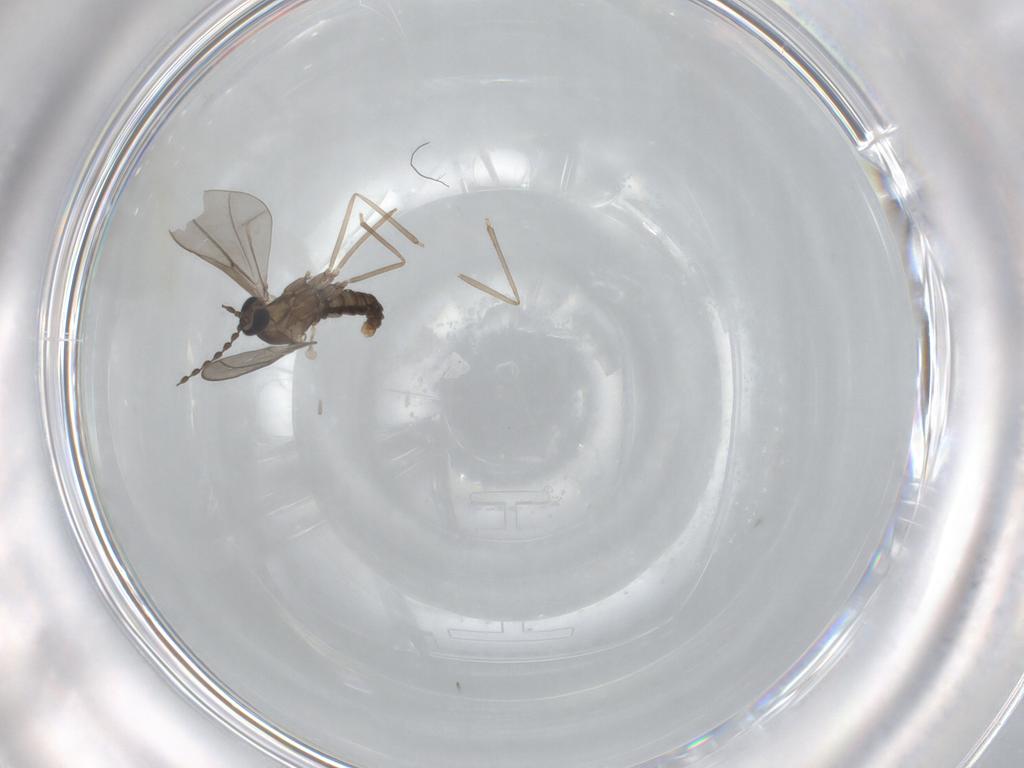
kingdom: Animalia
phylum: Arthropoda
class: Insecta
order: Diptera
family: Cecidomyiidae
